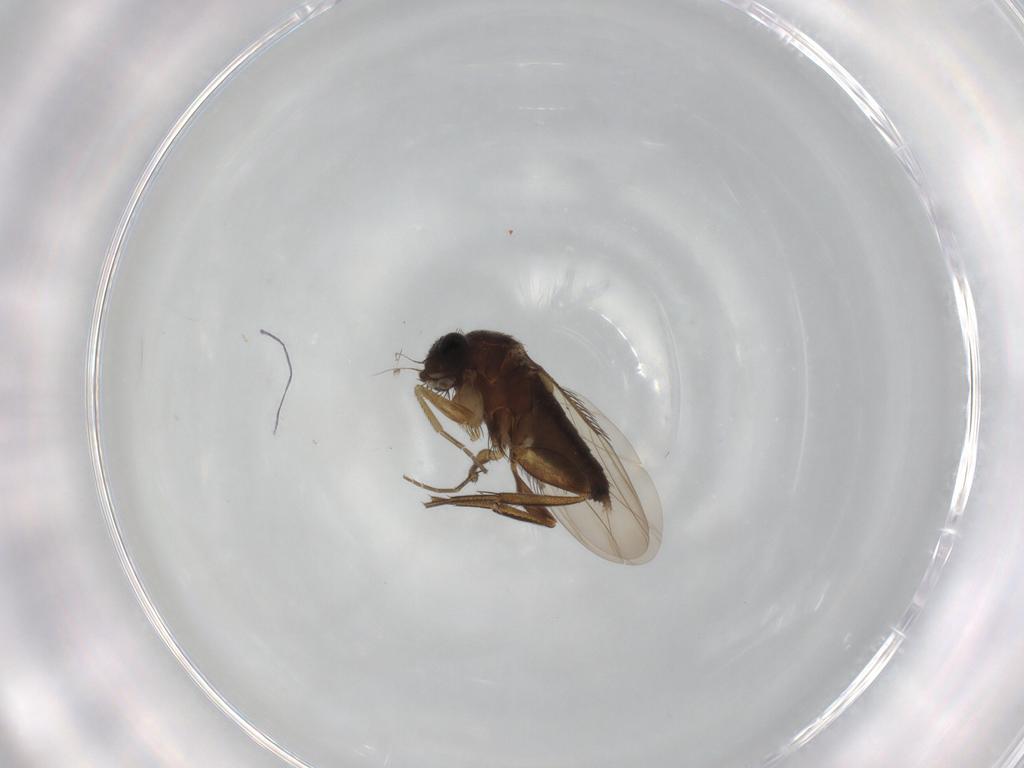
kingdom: Animalia
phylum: Arthropoda
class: Insecta
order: Diptera
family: Phoridae
